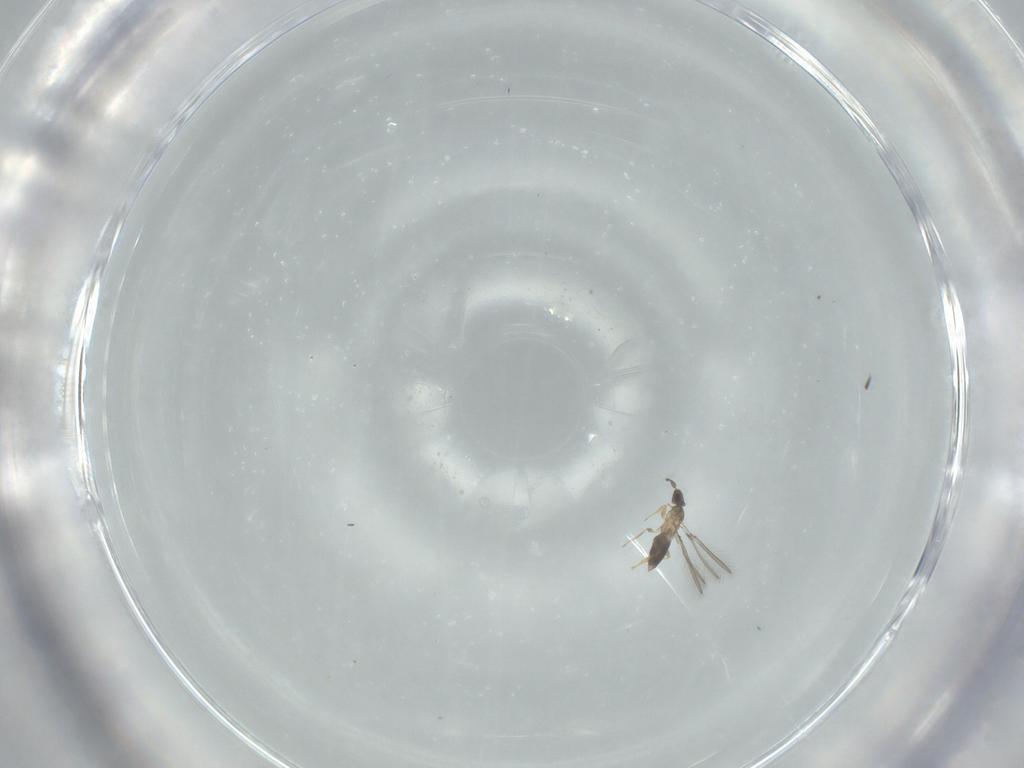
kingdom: Animalia
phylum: Arthropoda
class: Insecta
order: Hymenoptera
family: Mymaridae
